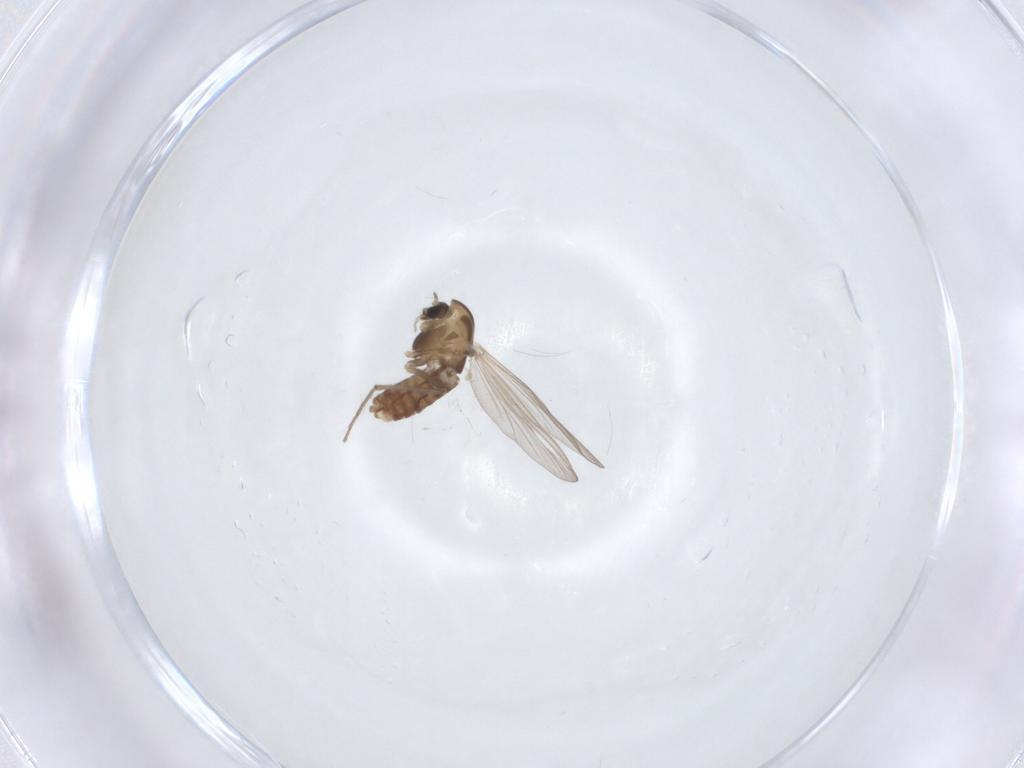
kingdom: Animalia
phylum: Arthropoda
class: Insecta
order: Diptera
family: Chironomidae
